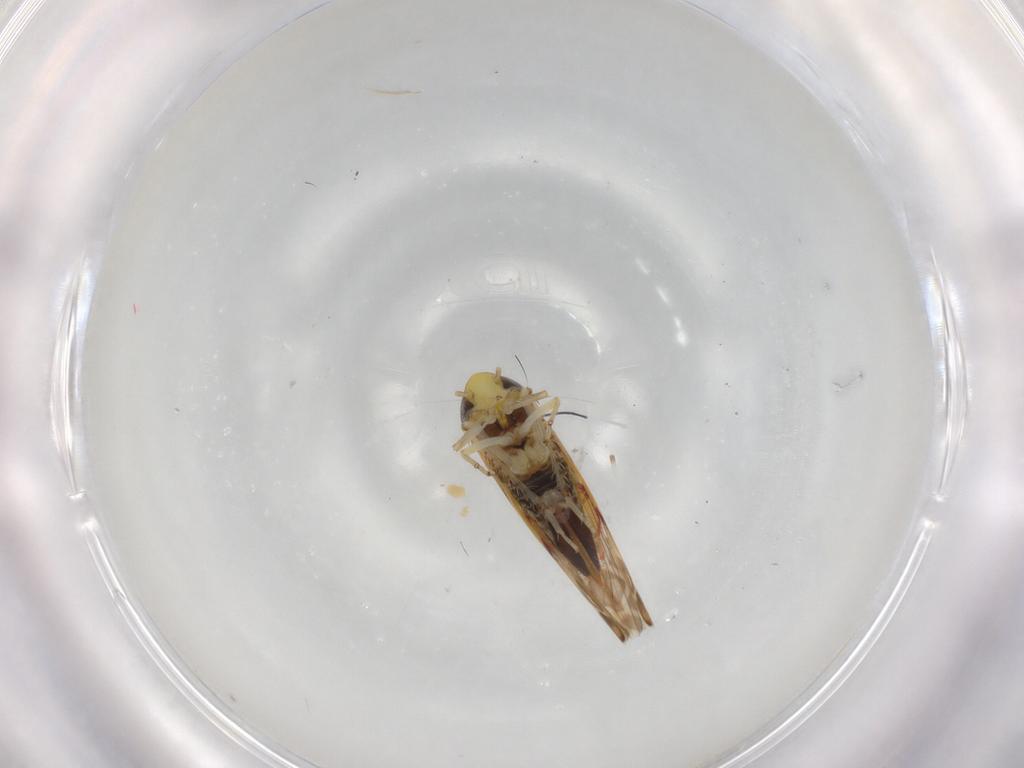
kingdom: Animalia
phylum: Arthropoda
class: Insecta
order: Hemiptera
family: Cicadellidae
